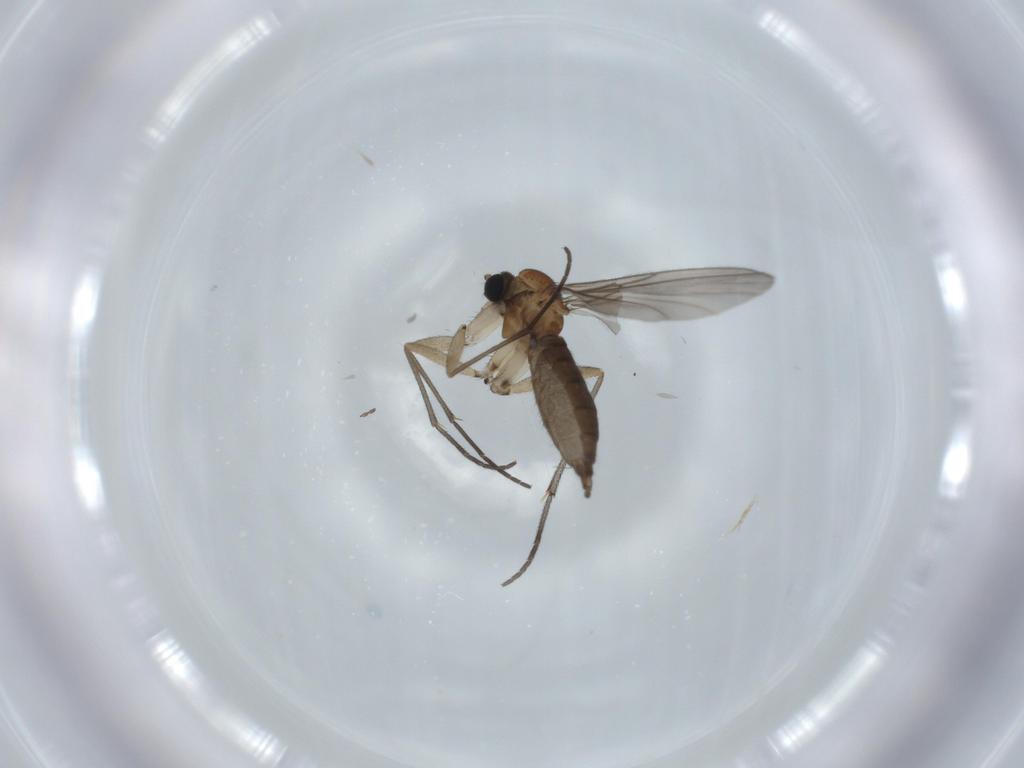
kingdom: Animalia
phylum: Arthropoda
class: Insecta
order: Diptera
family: Sciaridae
